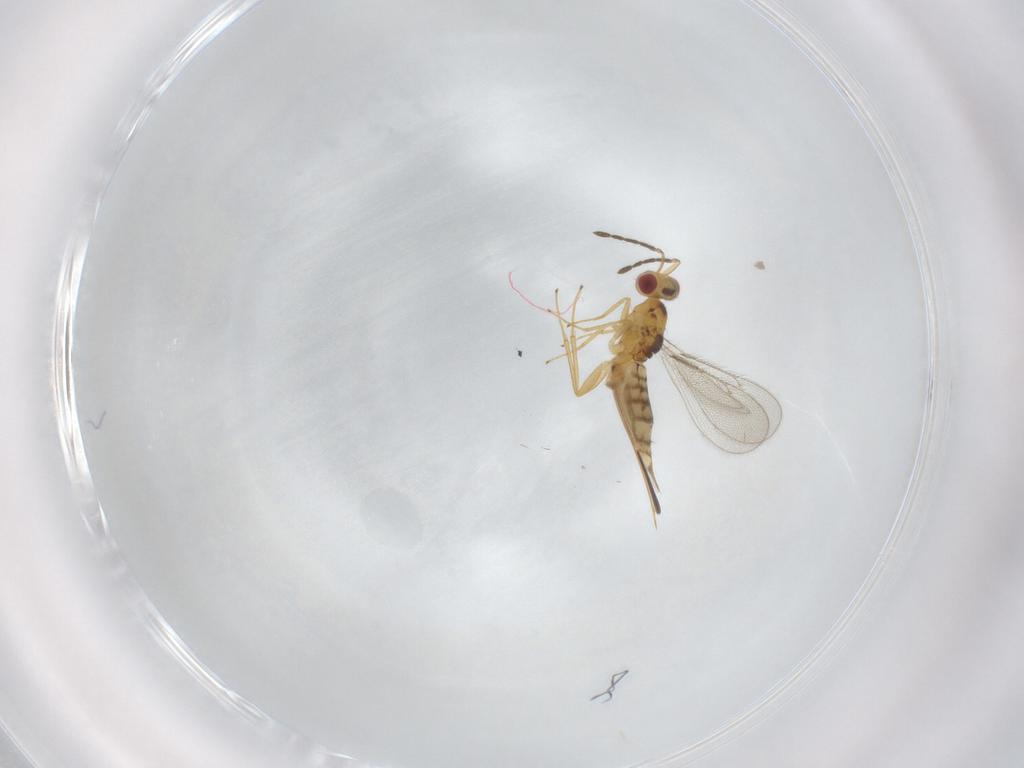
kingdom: Animalia
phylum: Arthropoda
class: Insecta
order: Hymenoptera
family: Eulophidae
